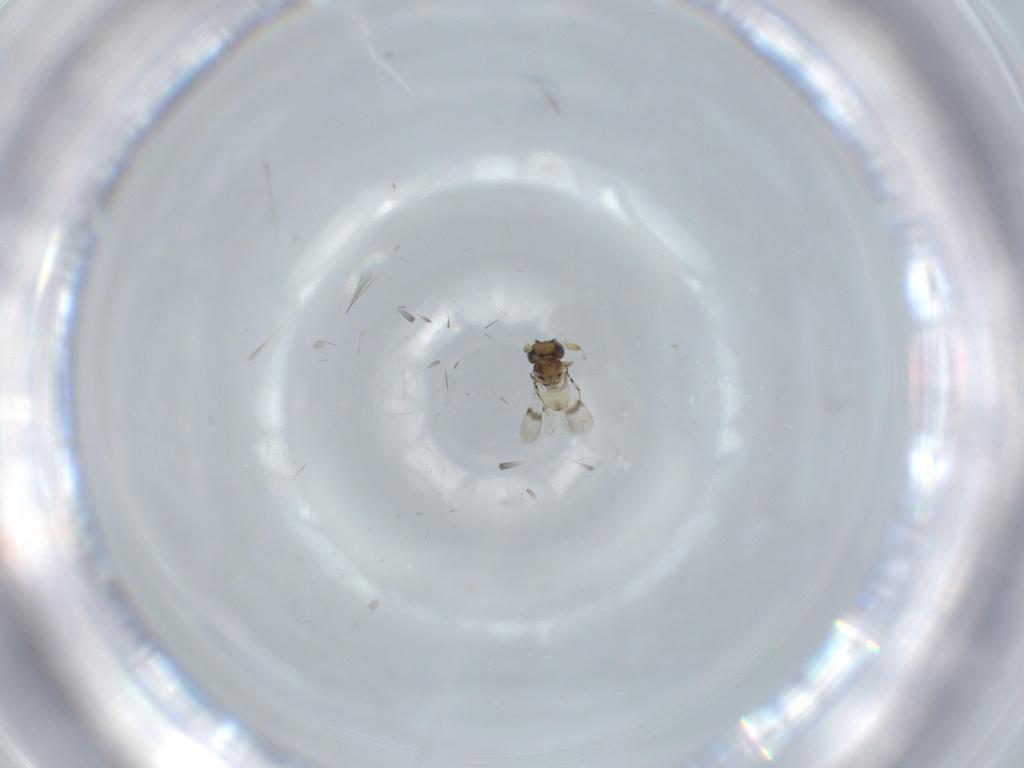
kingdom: Animalia
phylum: Arthropoda
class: Insecta
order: Hymenoptera
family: Scelionidae
